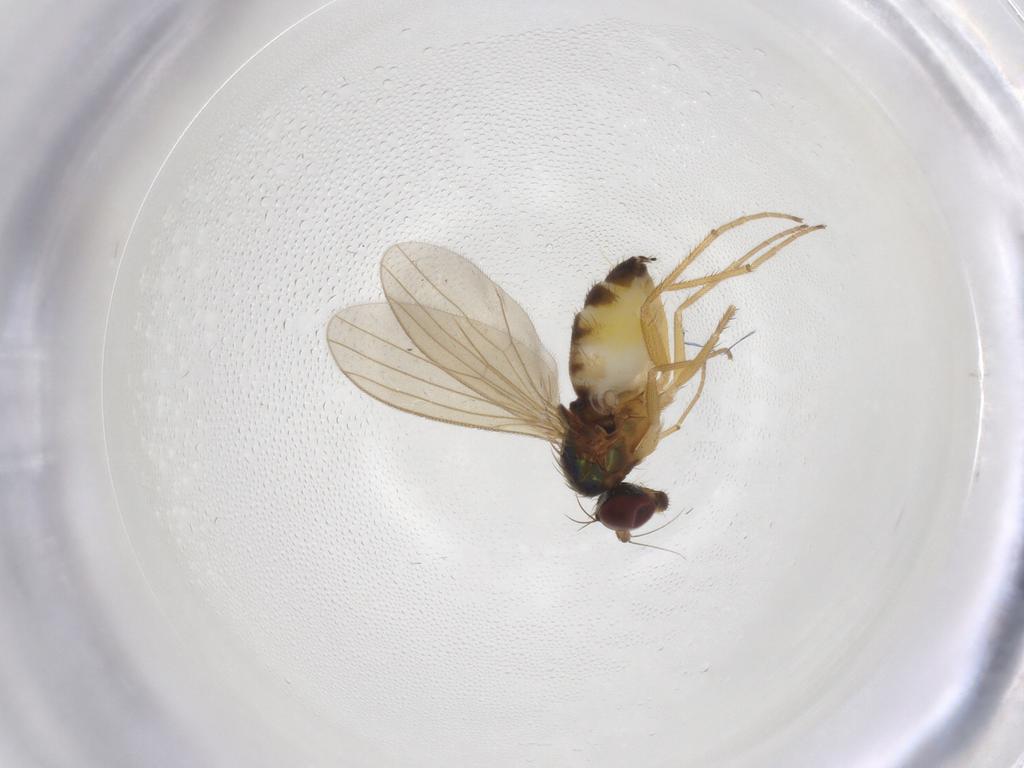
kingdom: Animalia
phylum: Arthropoda
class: Insecta
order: Diptera
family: Dolichopodidae
